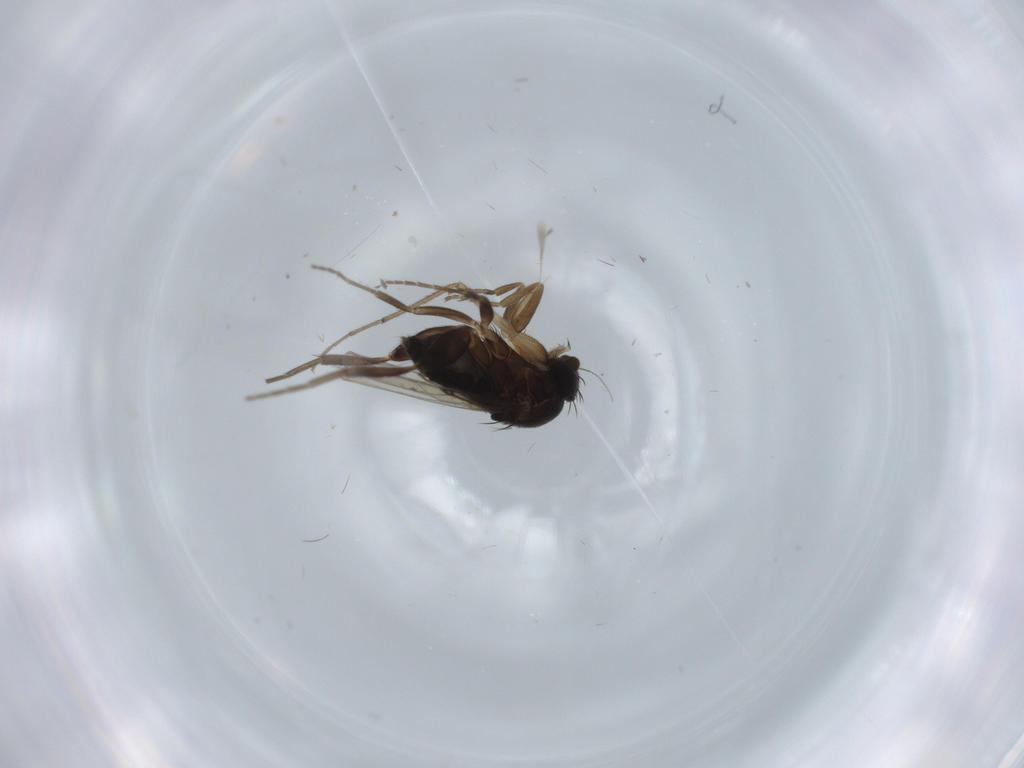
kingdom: Animalia
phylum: Arthropoda
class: Insecta
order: Diptera
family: Phoridae
